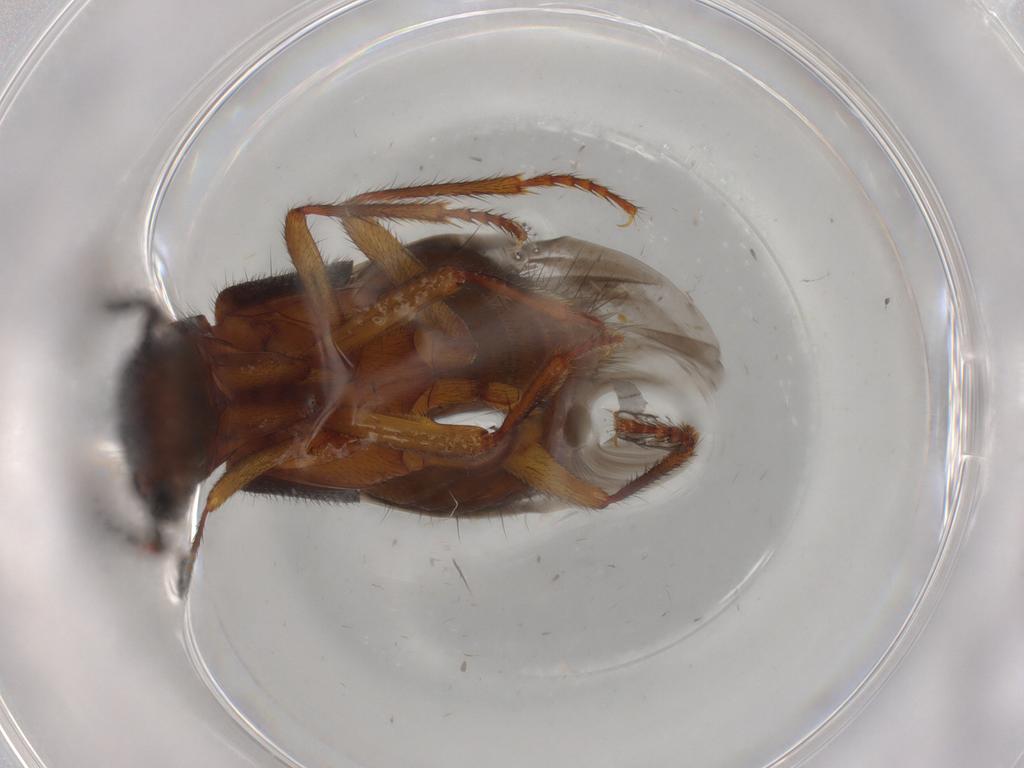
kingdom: Animalia
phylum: Arthropoda
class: Insecta
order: Coleoptera
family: Staphylinidae
